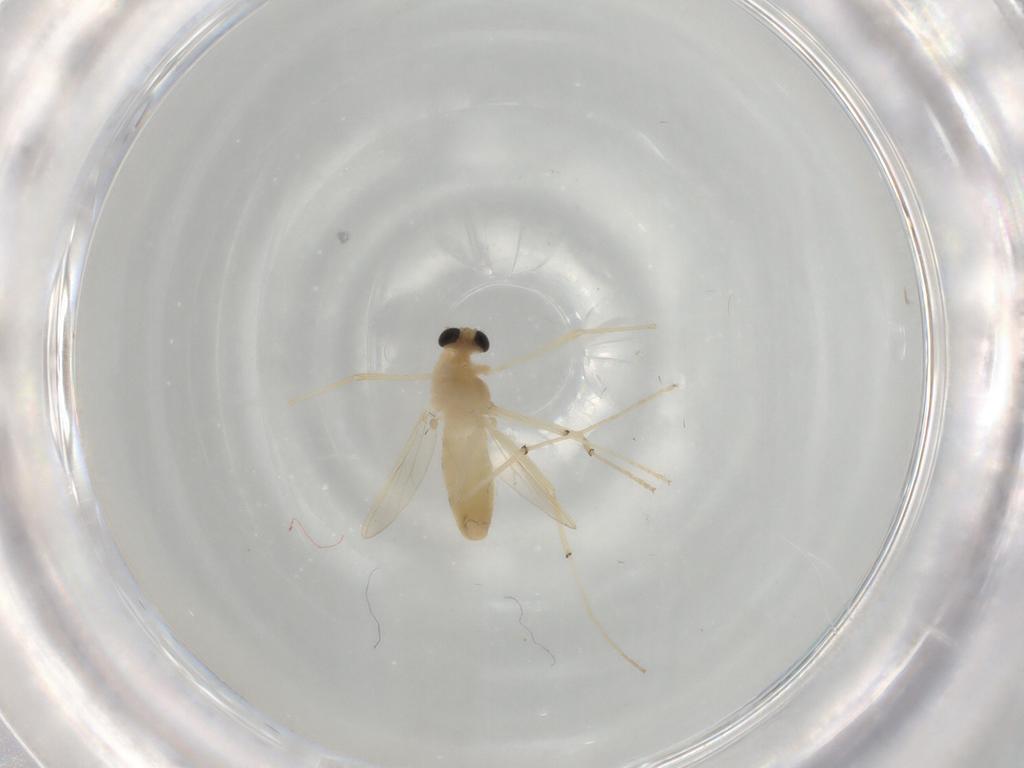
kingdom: Animalia
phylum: Arthropoda
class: Insecta
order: Diptera
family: Chironomidae
